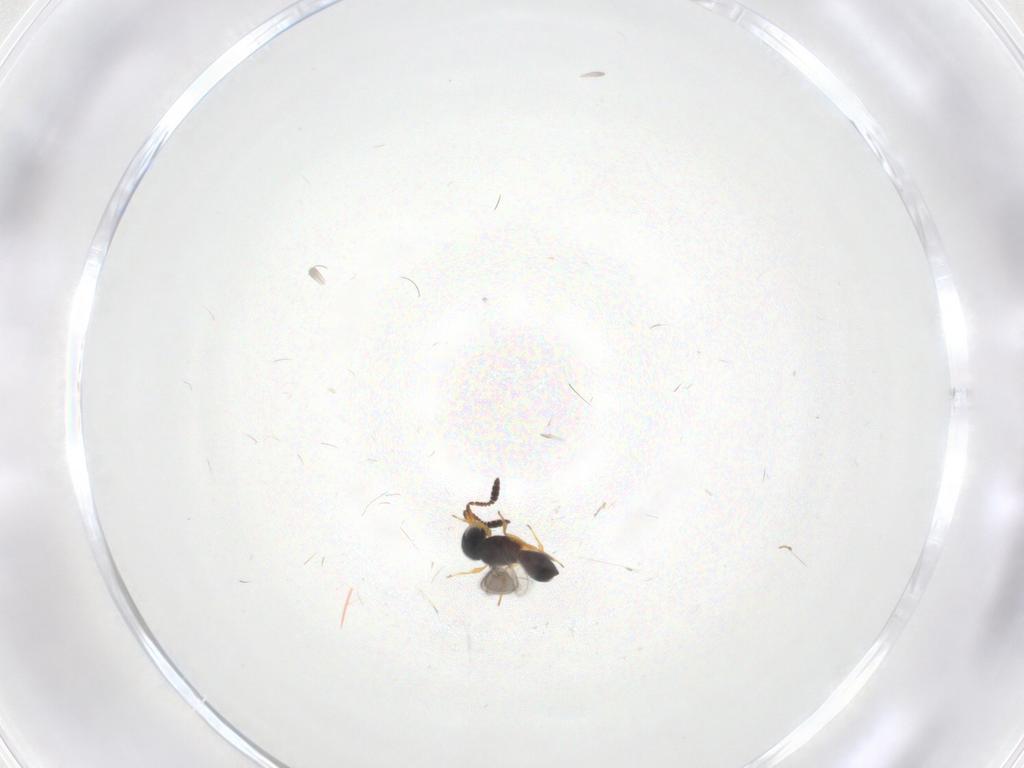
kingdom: Animalia
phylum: Arthropoda
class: Insecta
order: Hymenoptera
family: Scelionidae
